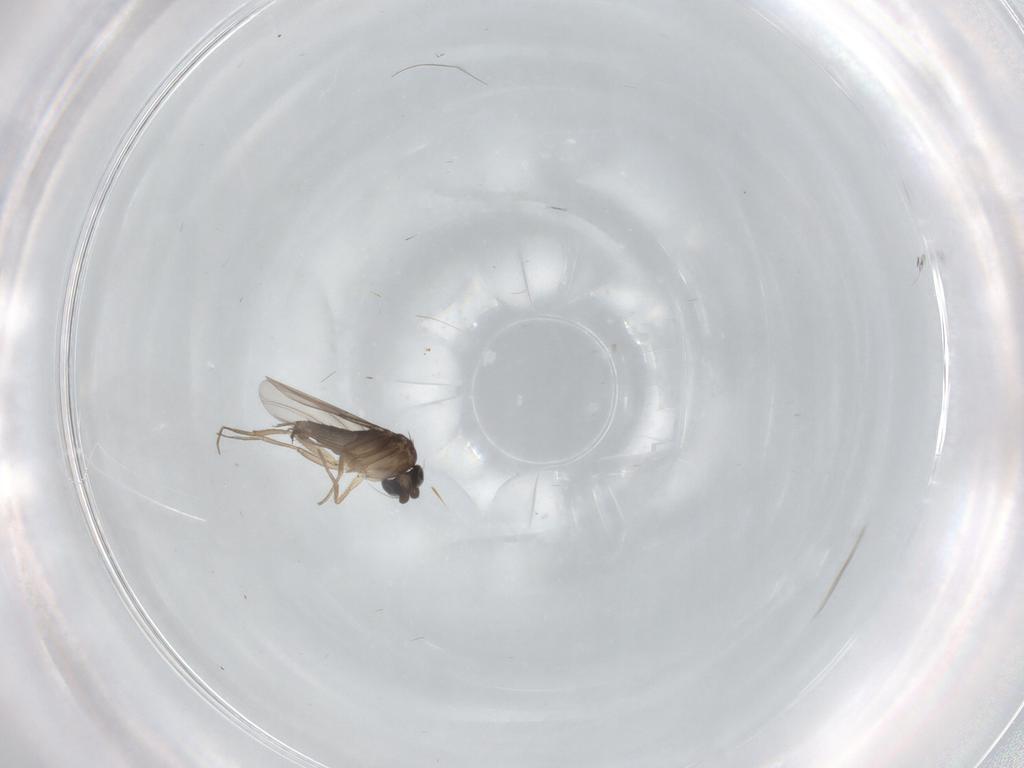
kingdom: Animalia
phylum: Arthropoda
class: Insecta
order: Diptera
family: Phoridae
